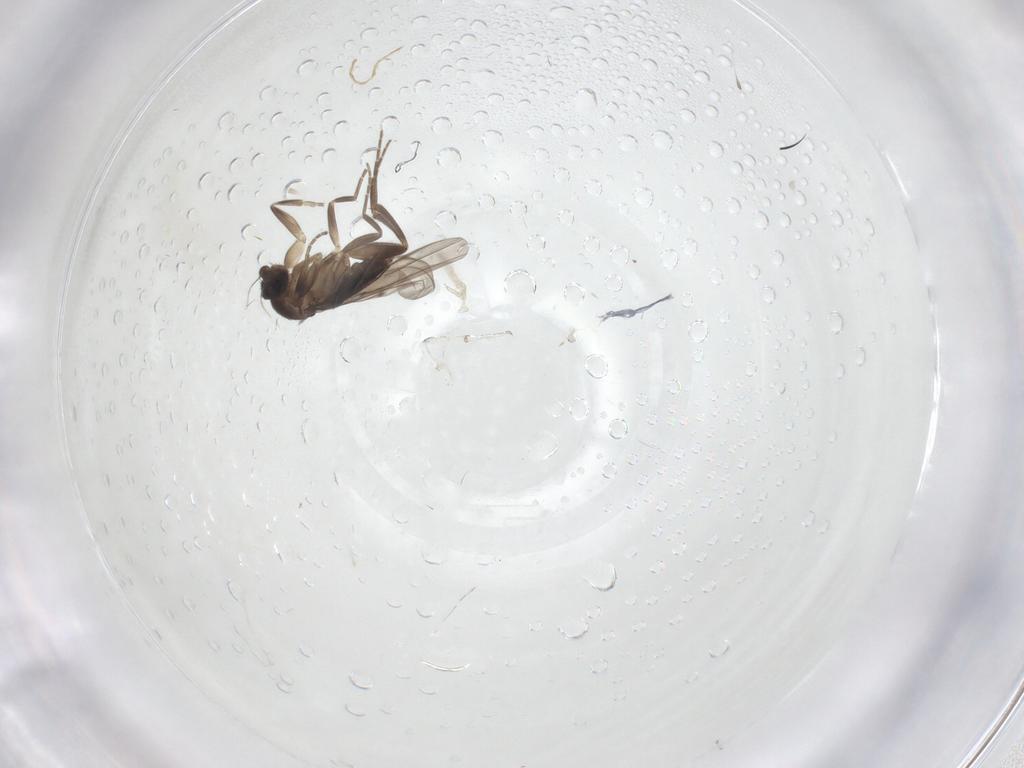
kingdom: Animalia
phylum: Arthropoda
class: Insecta
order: Diptera
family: Phoridae
